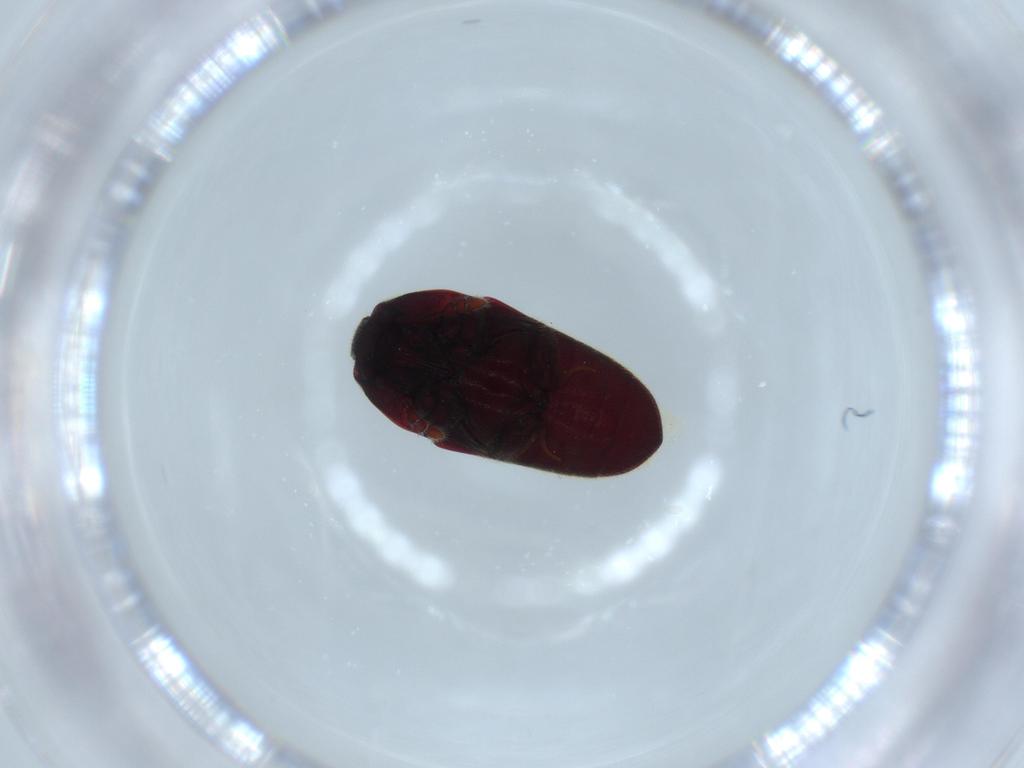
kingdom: Animalia
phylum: Arthropoda
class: Insecta
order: Coleoptera
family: Throscidae
